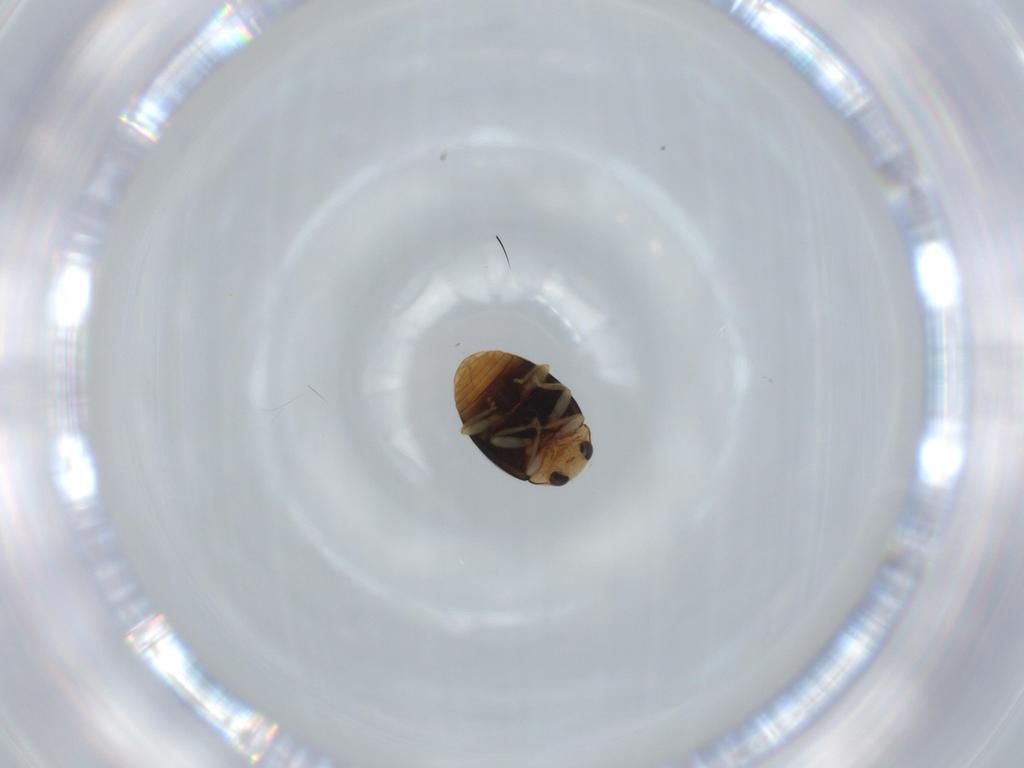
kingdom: Animalia
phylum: Arthropoda
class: Insecta
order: Coleoptera
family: Coccinellidae
